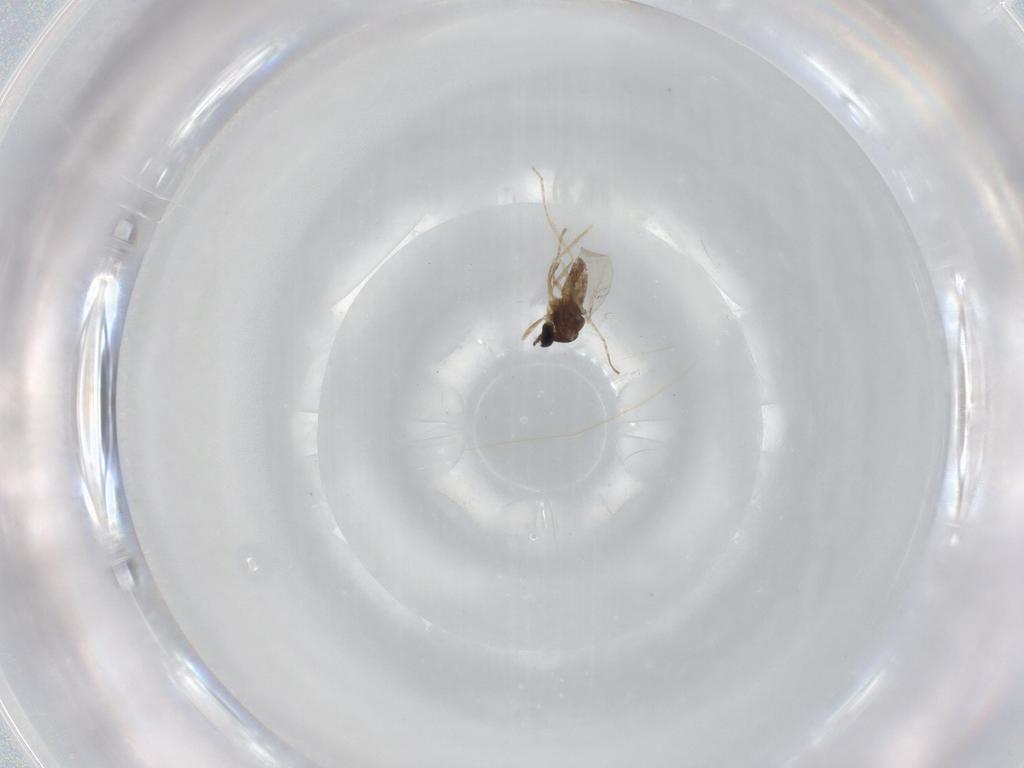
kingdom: Animalia
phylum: Arthropoda
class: Insecta
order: Diptera
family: Cecidomyiidae
